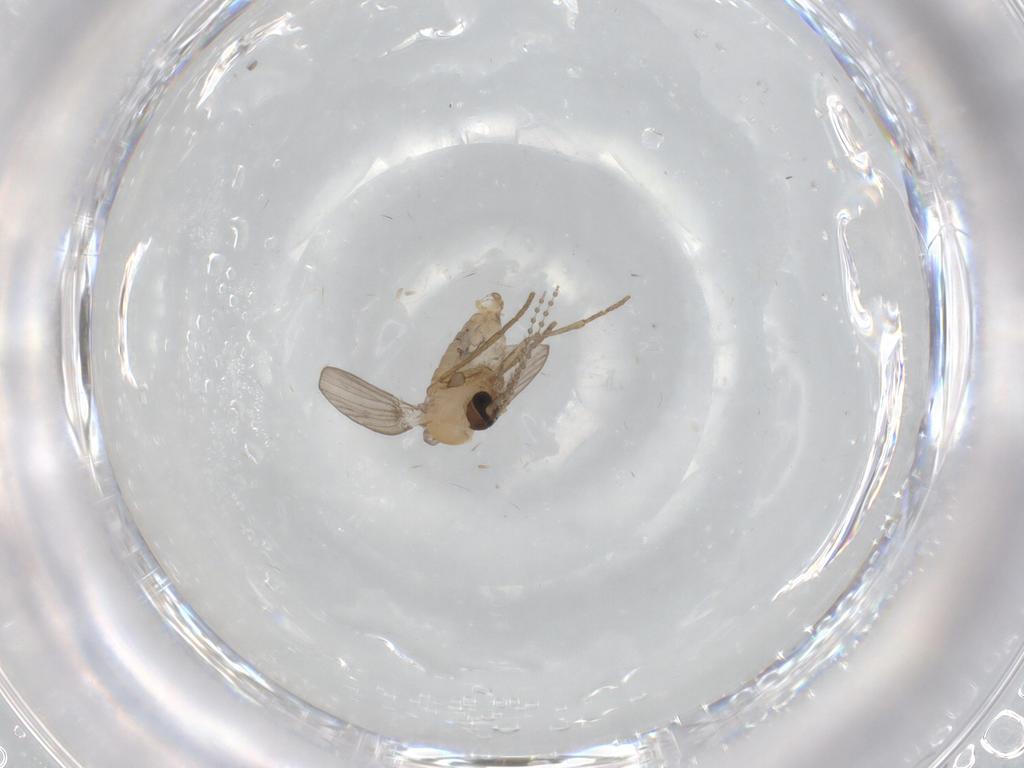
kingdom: Animalia
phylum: Arthropoda
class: Insecta
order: Diptera
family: Psychodidae
